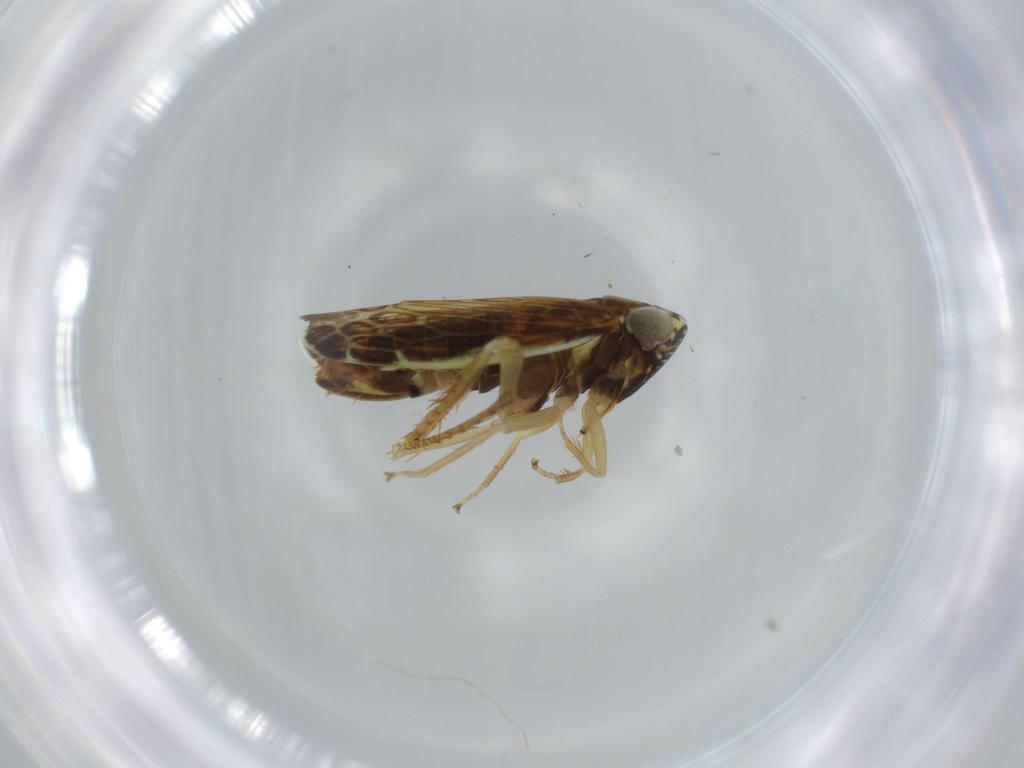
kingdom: Animalia
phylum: Arthropoda
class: Insecta
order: Hemiptera
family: Cicadellidae
